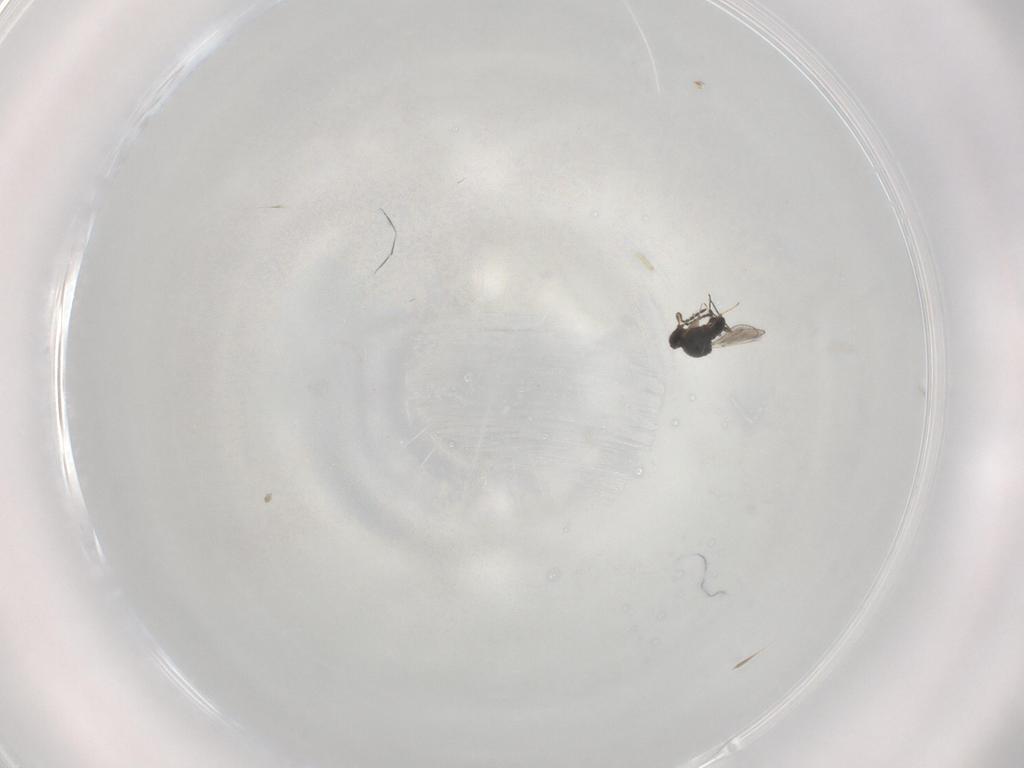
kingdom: Animalia
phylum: Arthropoda
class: Insecta
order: Hymenoptera
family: Platygastridae
